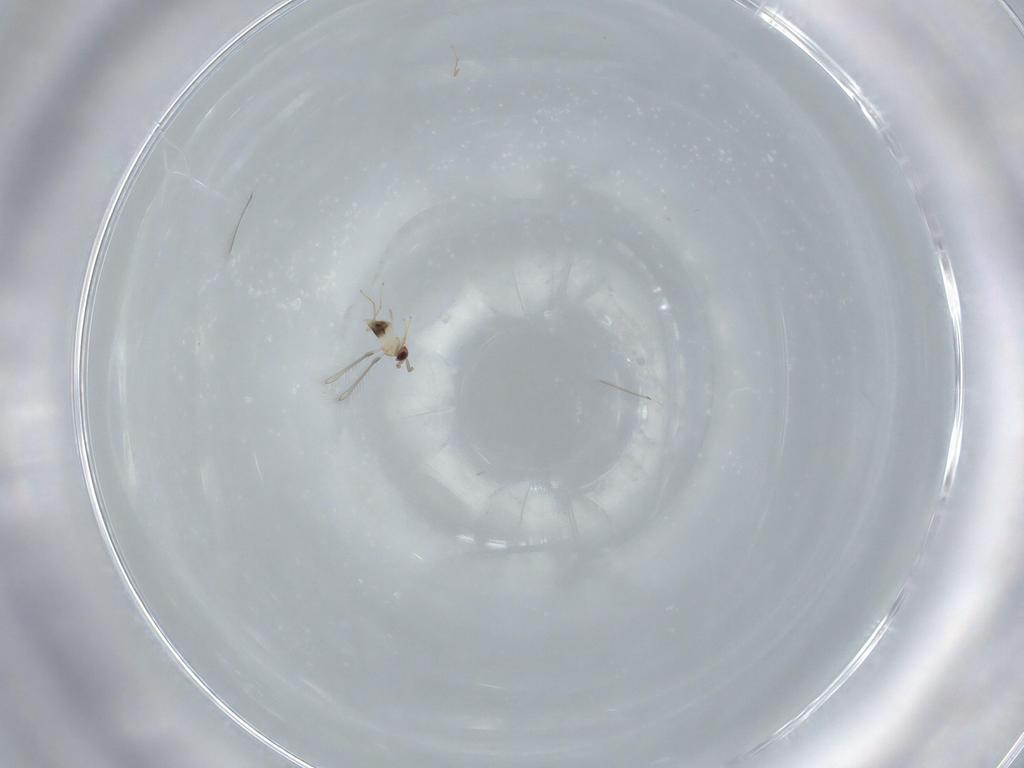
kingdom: Animalia
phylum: Arthropoda
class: Insecta
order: Hymenoptera
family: Mymaridae
